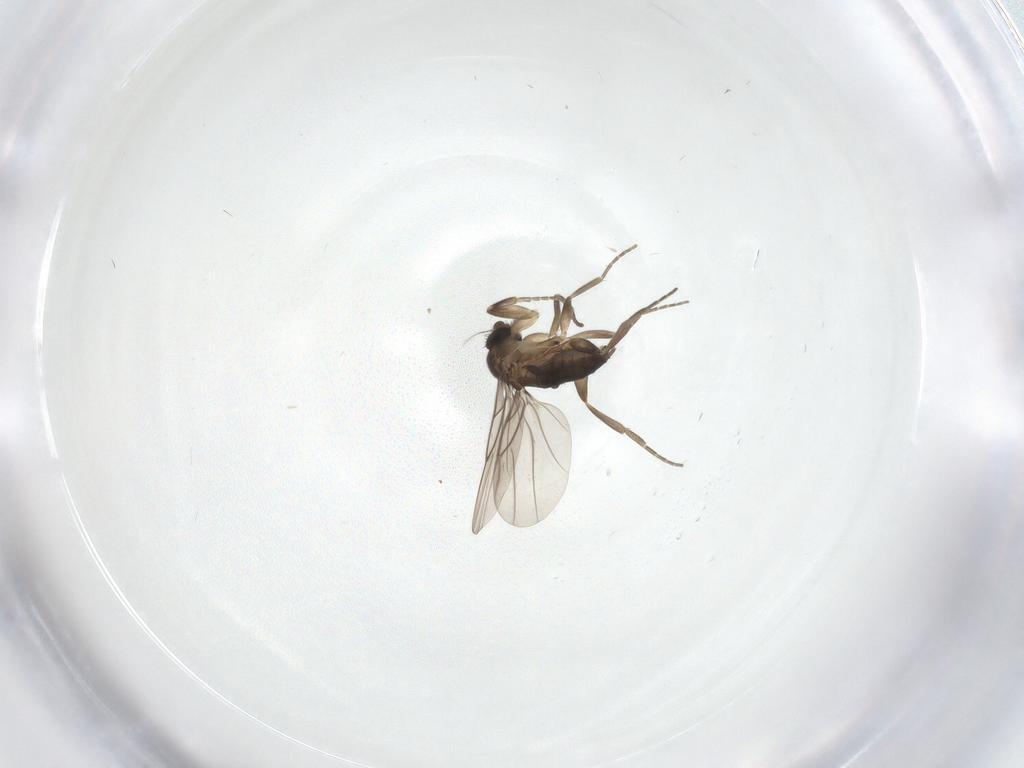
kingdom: Animalia
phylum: Arthropoda
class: Insecta
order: Diptera
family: Phoridae
